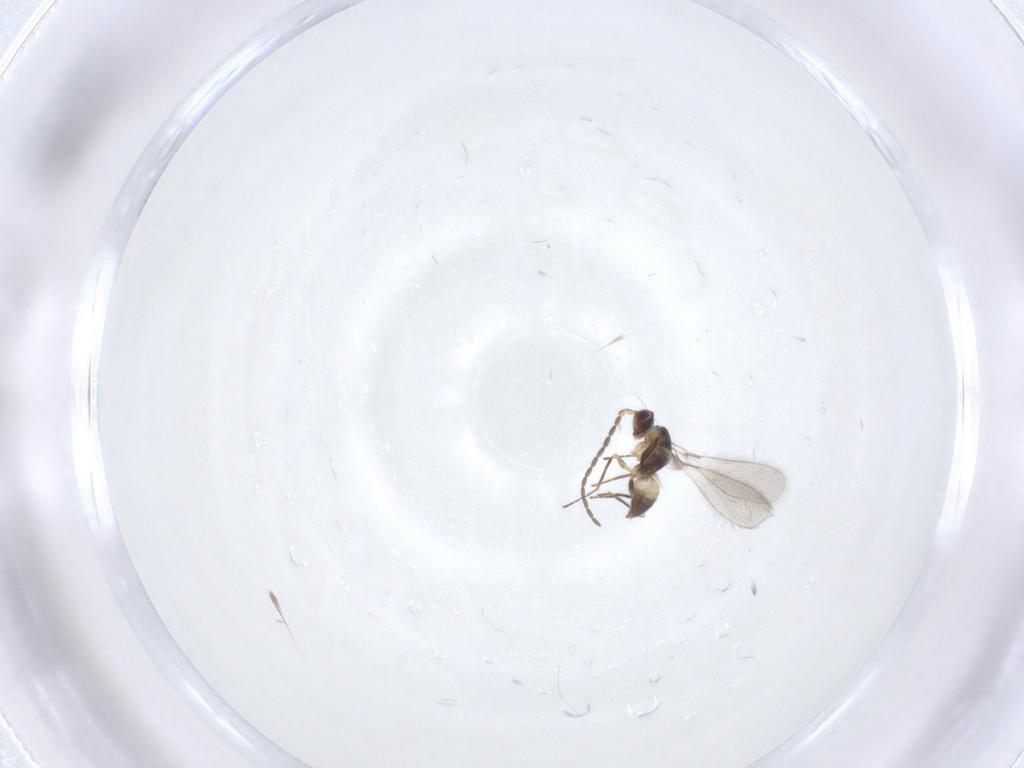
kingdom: Animalia
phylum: Arthropoda
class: Insecta
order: Hymenoptera
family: Mymaridae
